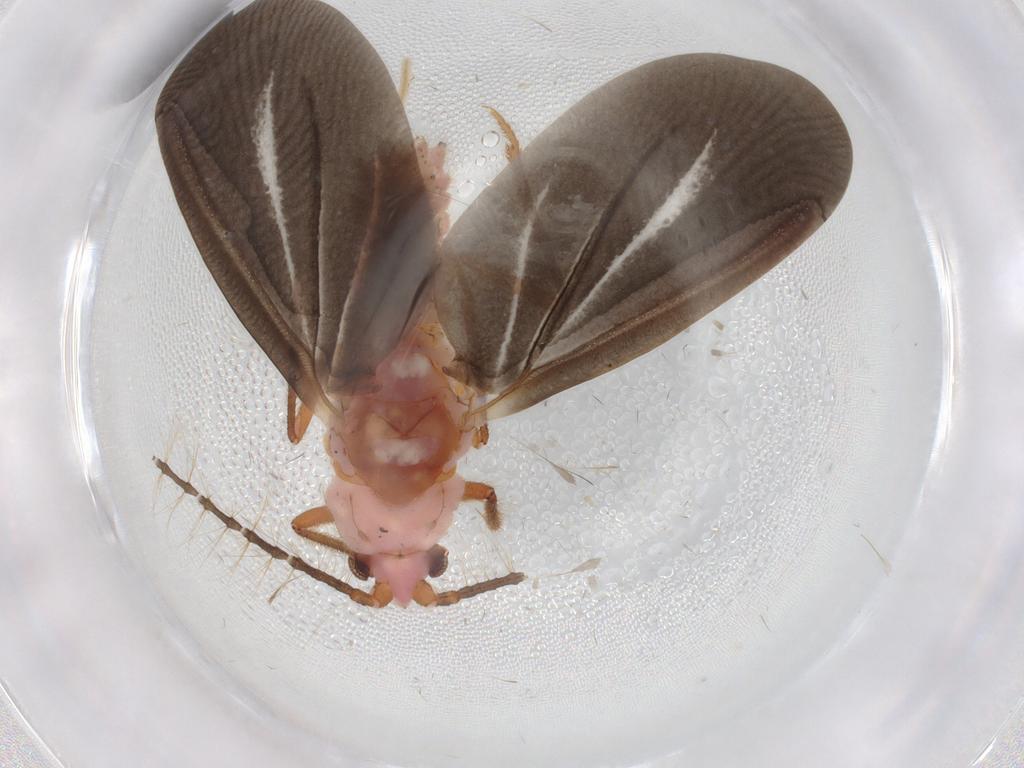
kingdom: Animalia
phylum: Arthropoda
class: Insecta
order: Hemiptera
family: Margarodidae
